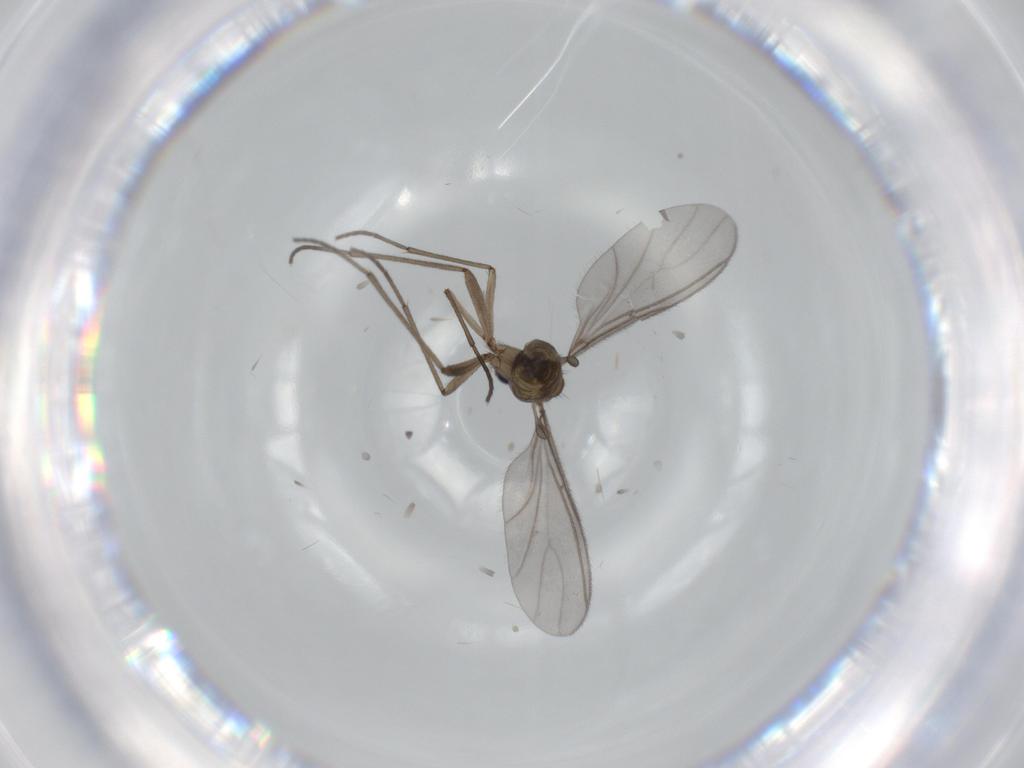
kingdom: Animalia
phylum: Arthropoda
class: Insecta
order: Diptera
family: Sciaridae
